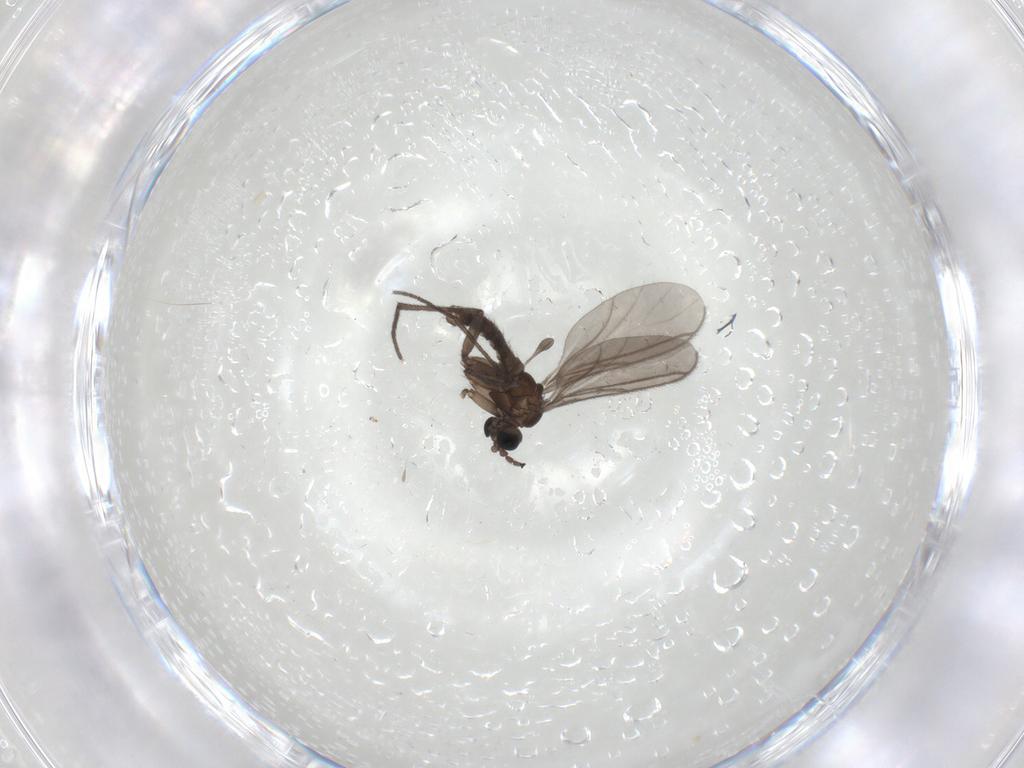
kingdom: Animalia
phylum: Arthropoda
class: Insecta
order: Diptera
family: Sciaridae
